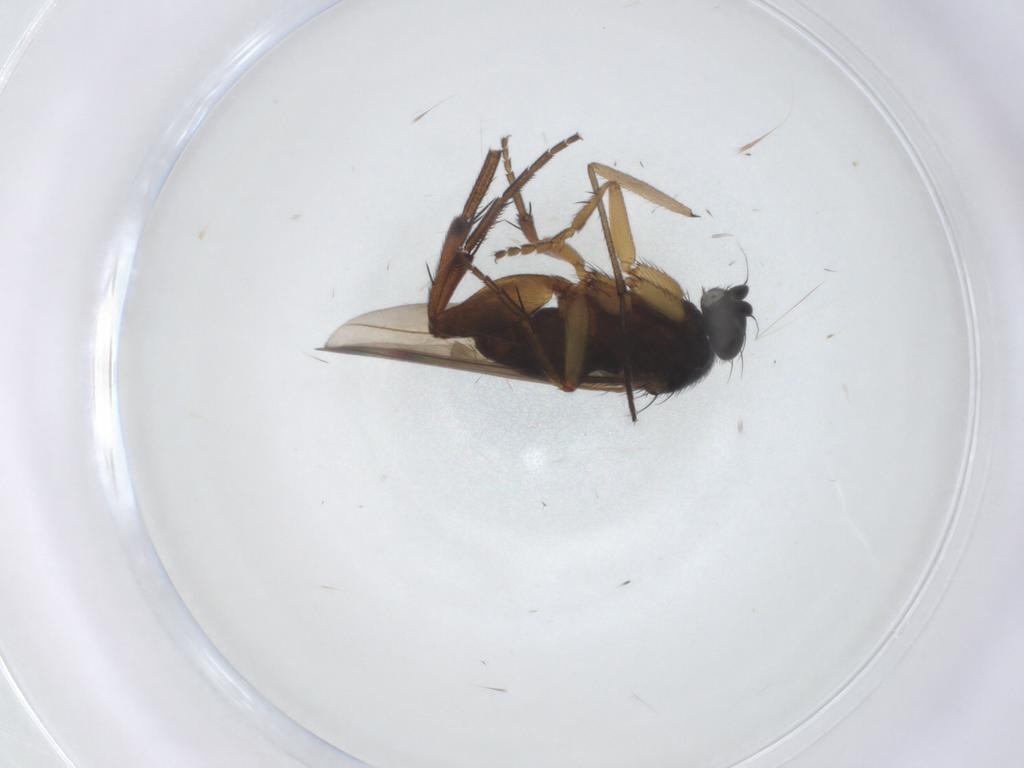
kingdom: Animalia
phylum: Arthropoda
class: Insecta
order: Diptera
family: Phoridae
